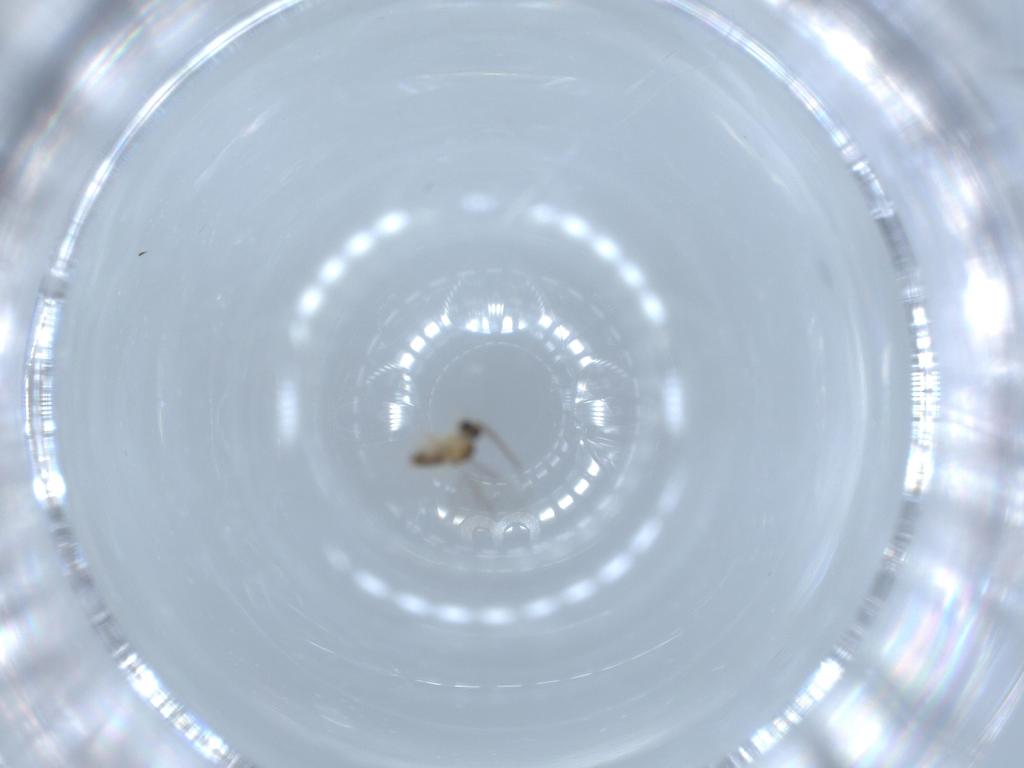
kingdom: Animalia
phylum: Arthropoda
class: Insecta
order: Diptera
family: Cecidomyiidae
